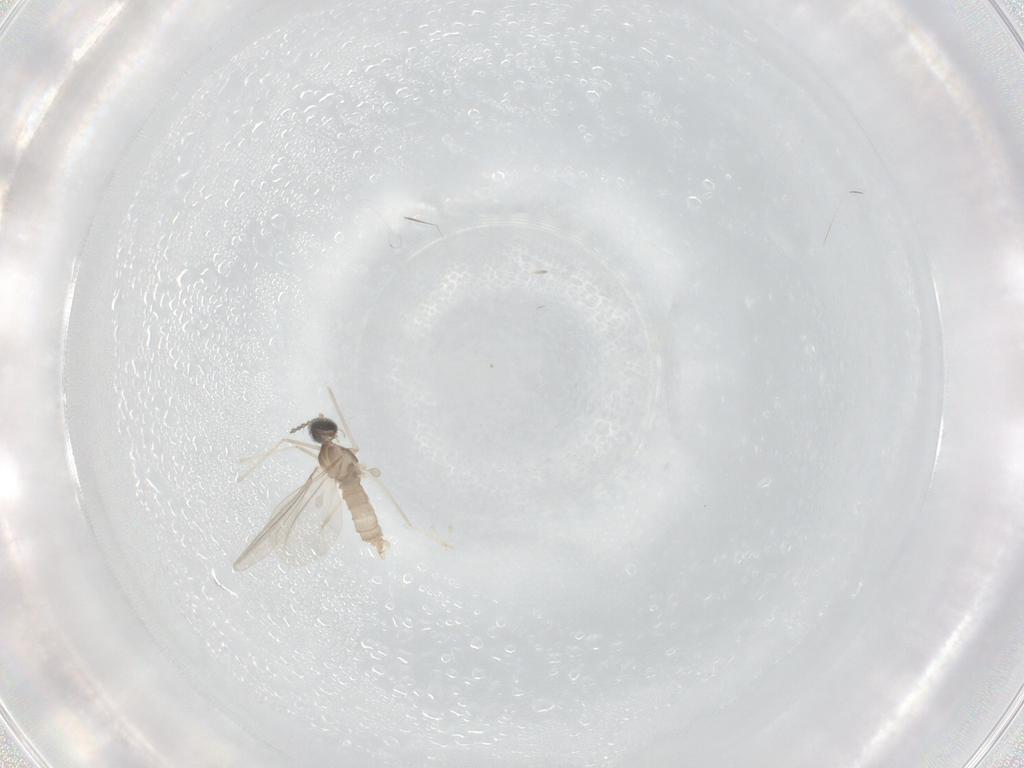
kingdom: Animalia
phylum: Arthropoda
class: Insecta
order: Diptera
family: Cecidomyiidae
